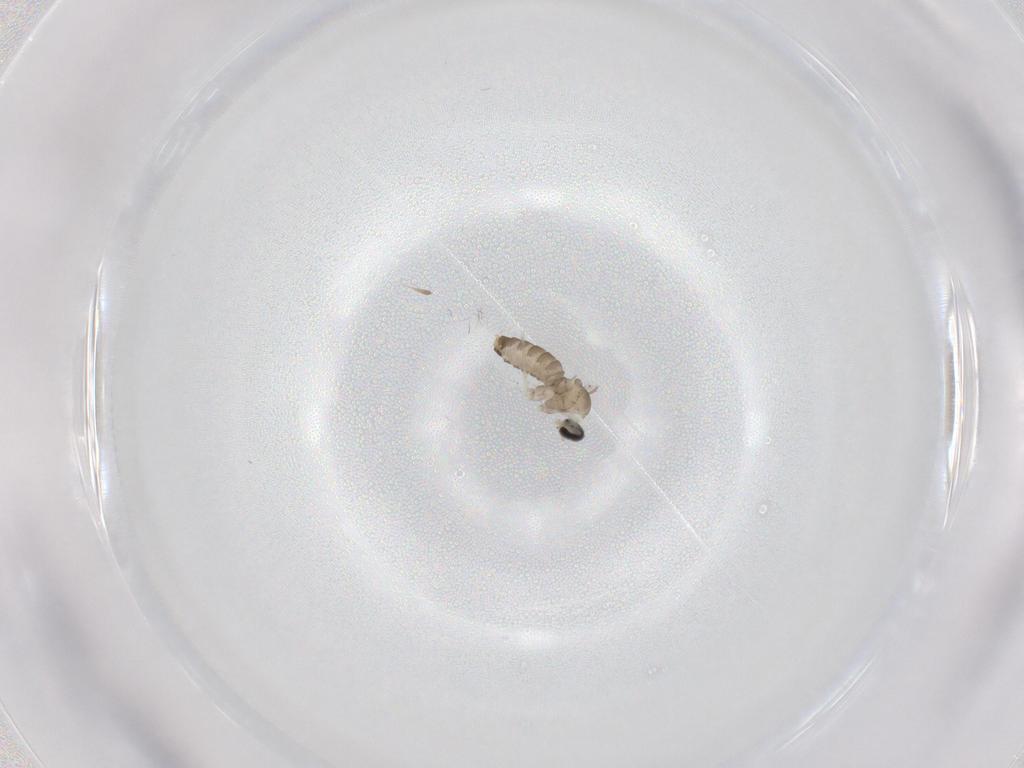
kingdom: Animalia
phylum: Arthropoda
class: Insecta
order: Diptera
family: Cecidomyiidae
